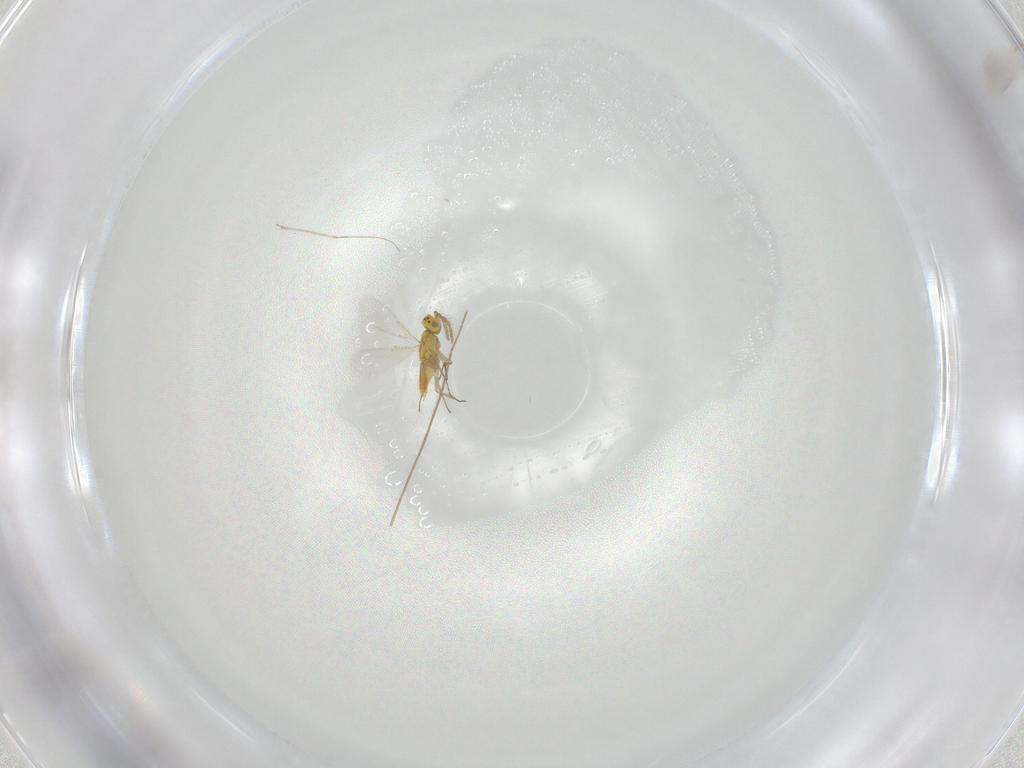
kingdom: Animalia
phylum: Arthropoda
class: Insecta
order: Hymenoptera
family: Aphelinidae
